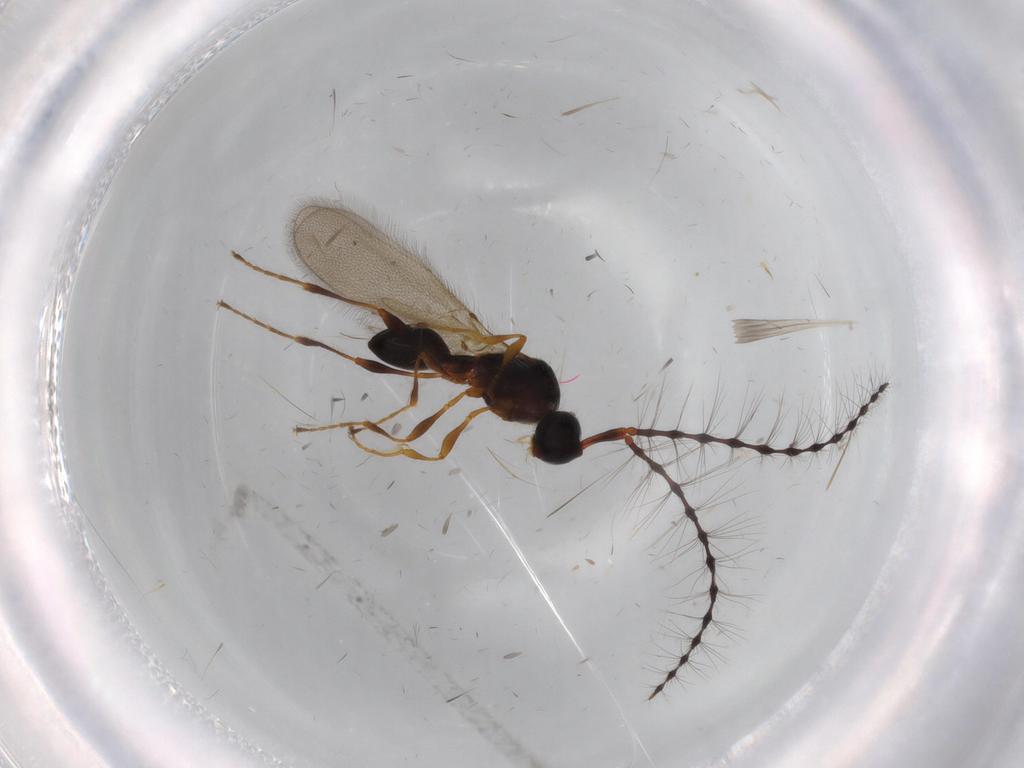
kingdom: Animalia
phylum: Arthropoda
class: Insecta
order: Hymenoptera
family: Diapriidae
